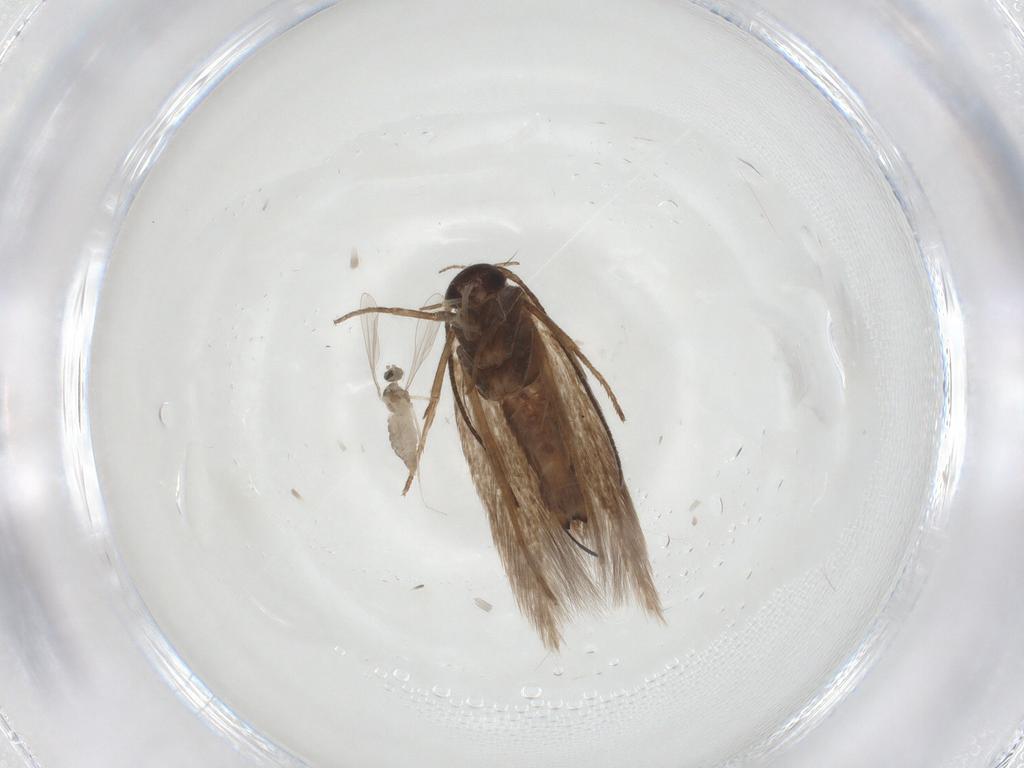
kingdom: Animalia
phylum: Arthropoda
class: Insecta
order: Lepidoptera
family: Scythrididae
